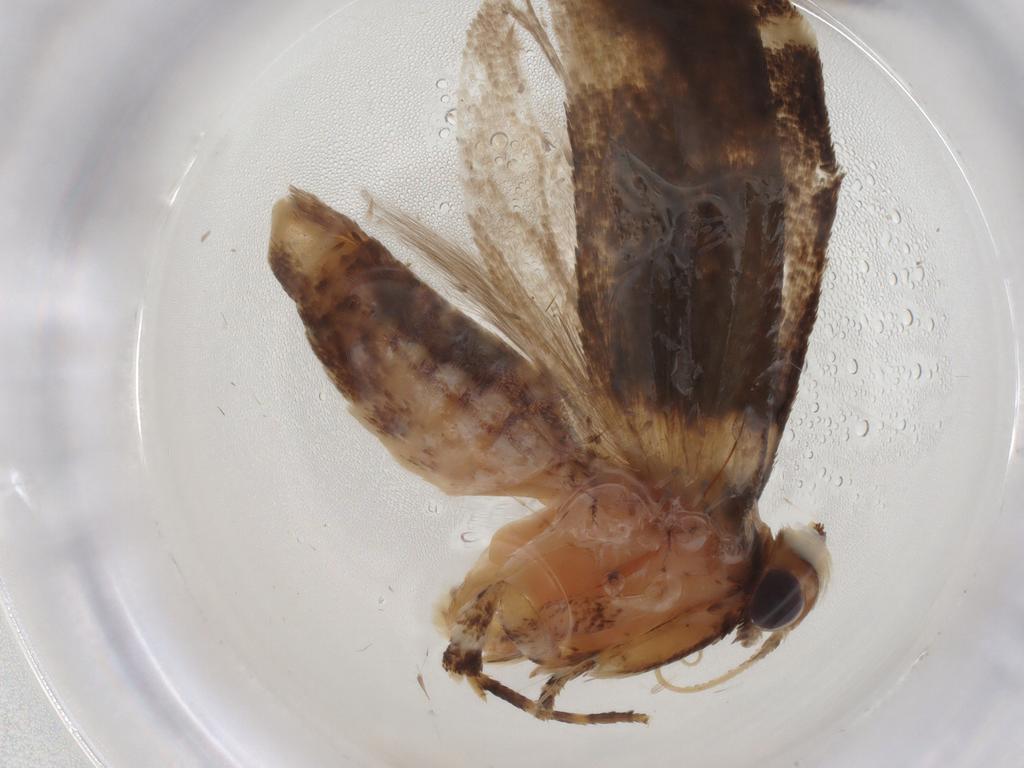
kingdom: Animalia
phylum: Arthropoda
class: Insecta
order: Lepidoptera
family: Gelechiidae
